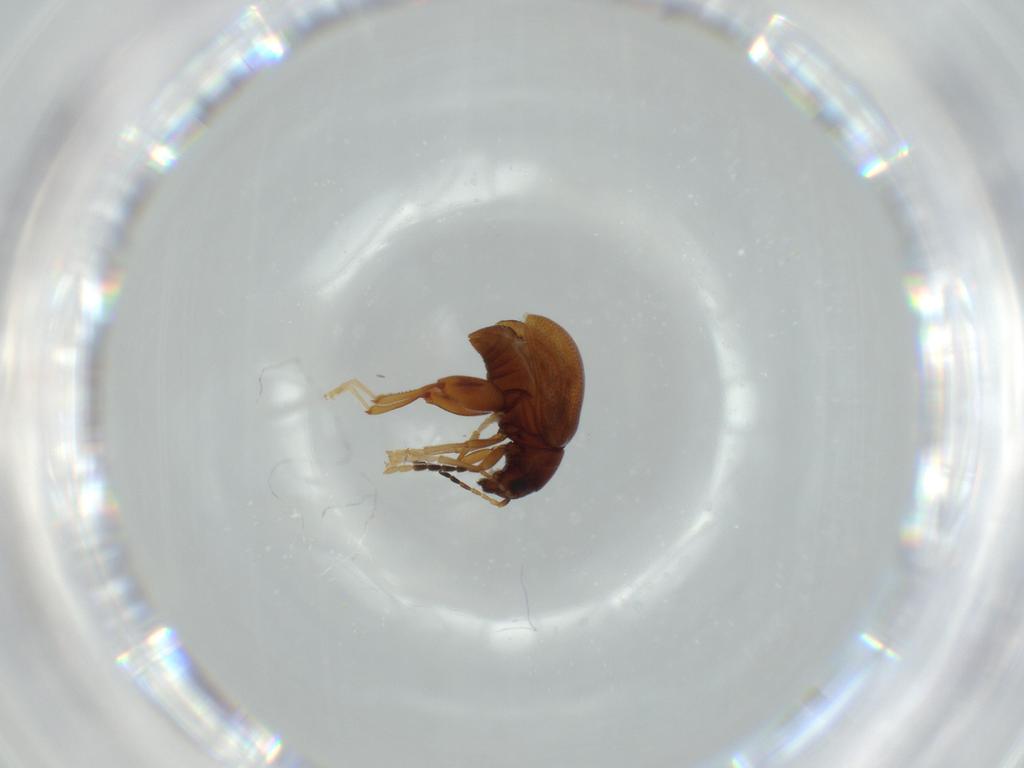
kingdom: Animalia
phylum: Arthropoda
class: Insecta
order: Coleoptera
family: Chrysomelidae
